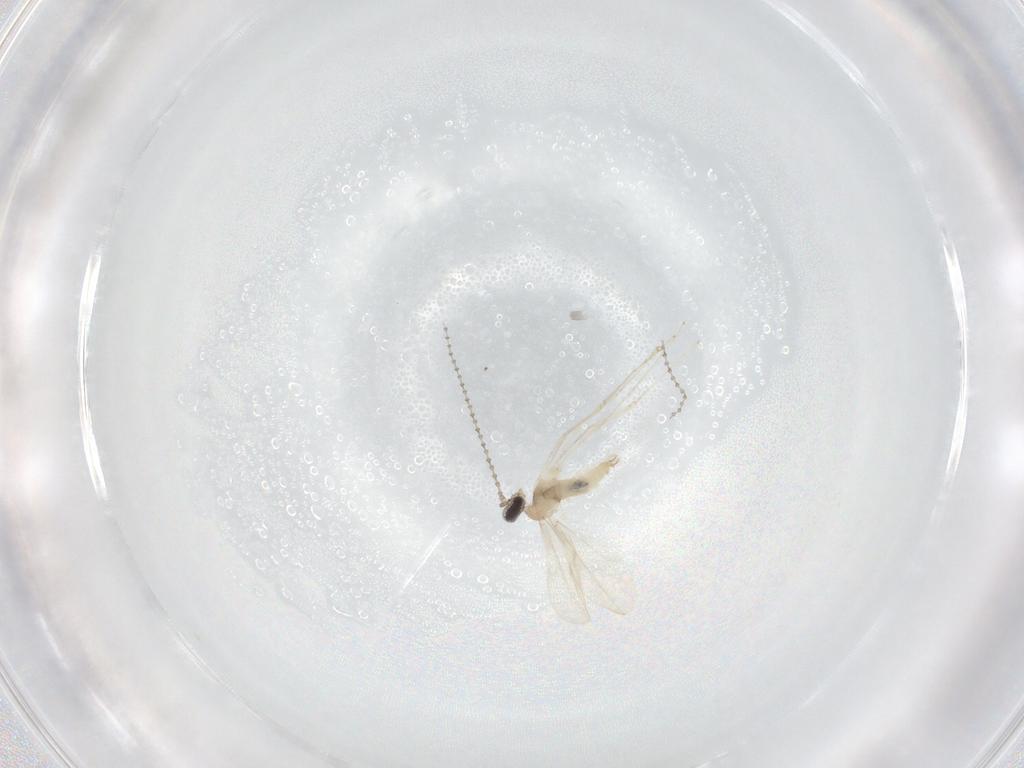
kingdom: Animalia
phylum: Arthropoda
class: Insecta
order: Diptera
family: Cecidomyiidae
